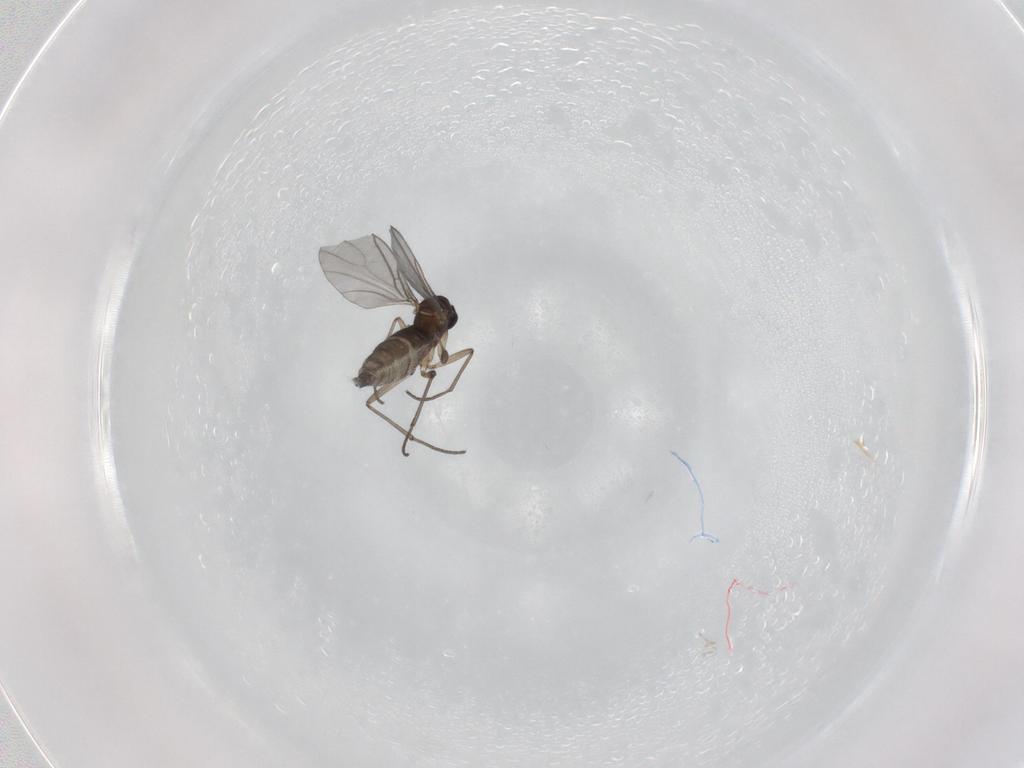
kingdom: Animalia
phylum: Arthropoda
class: Insecta
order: Diptera
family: Sciaridae
